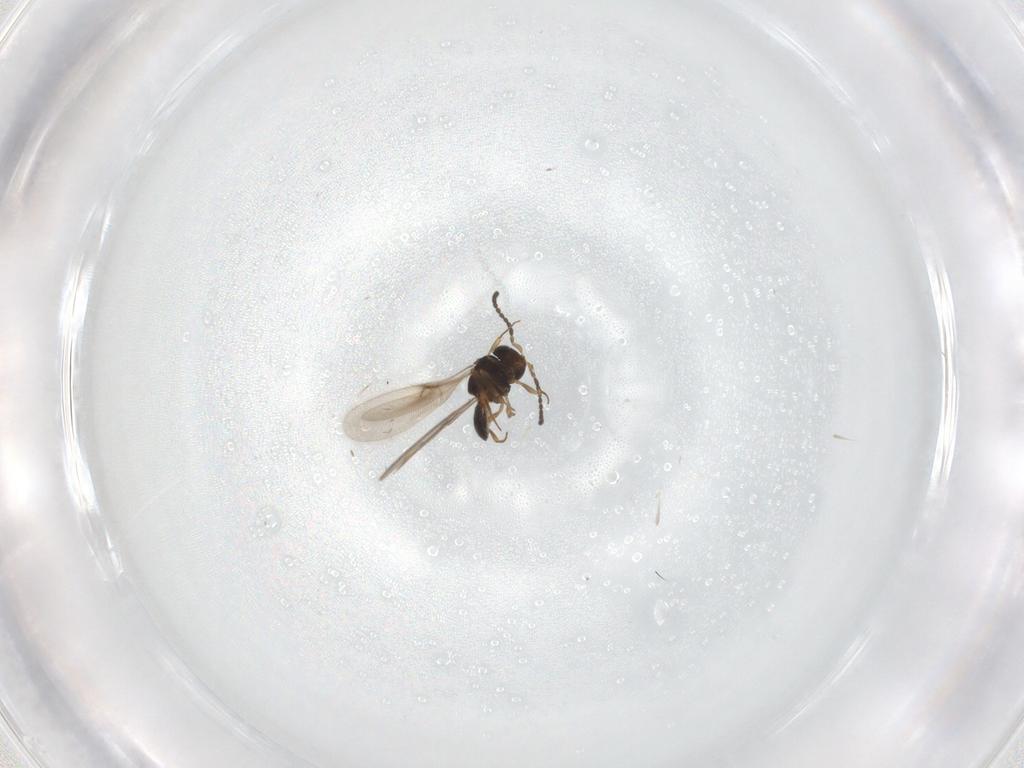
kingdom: Animalia
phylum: Arthropoda
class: Insecta
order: Hymenoptera
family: Scelionidae
